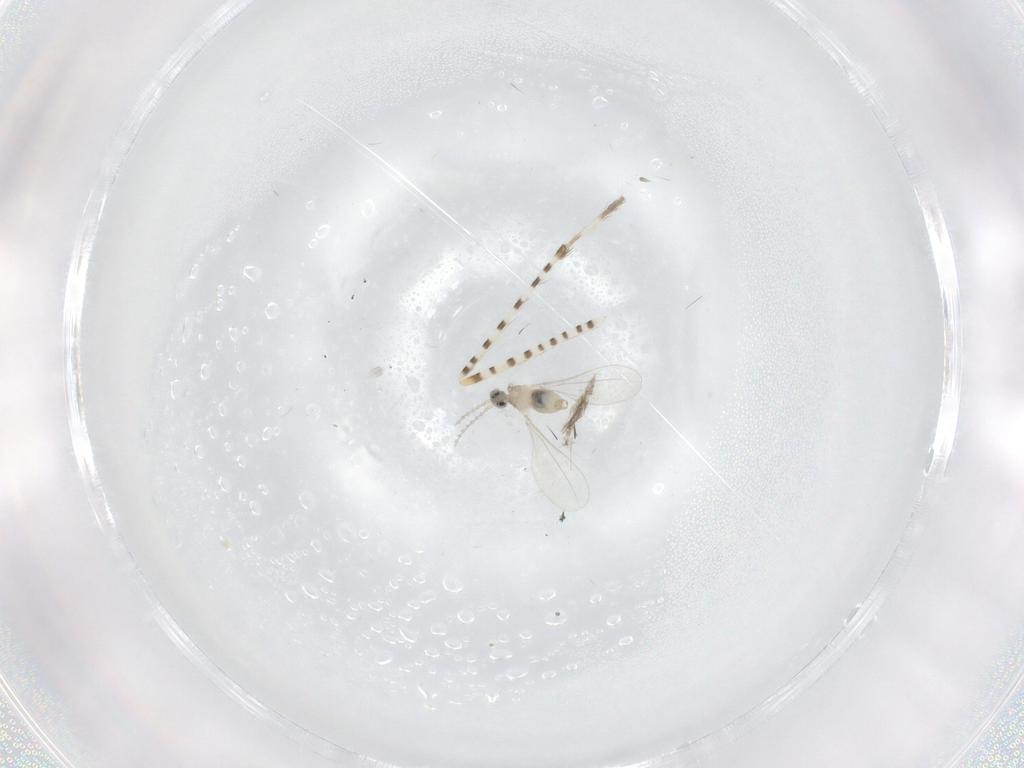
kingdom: Animalia
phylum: Arthropoda
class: Insecta
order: Diptera
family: Cecidomyiidae
